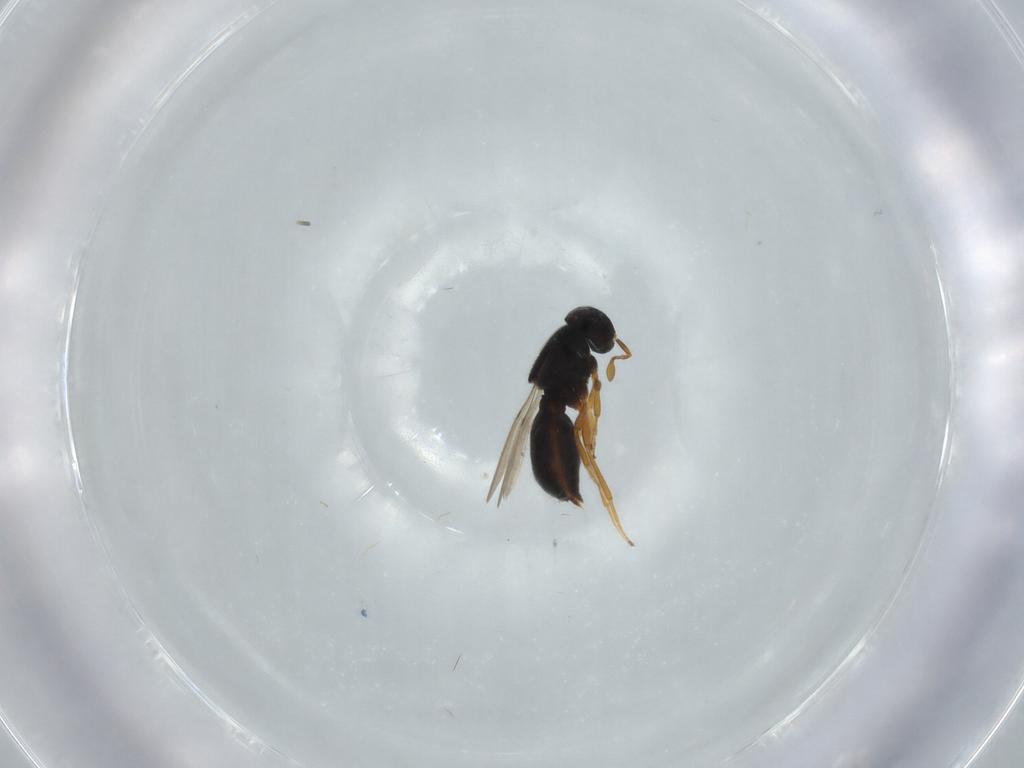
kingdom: Animalia
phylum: Arthropoda
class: Insecta
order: Hymenoptera
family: Scelionidae
